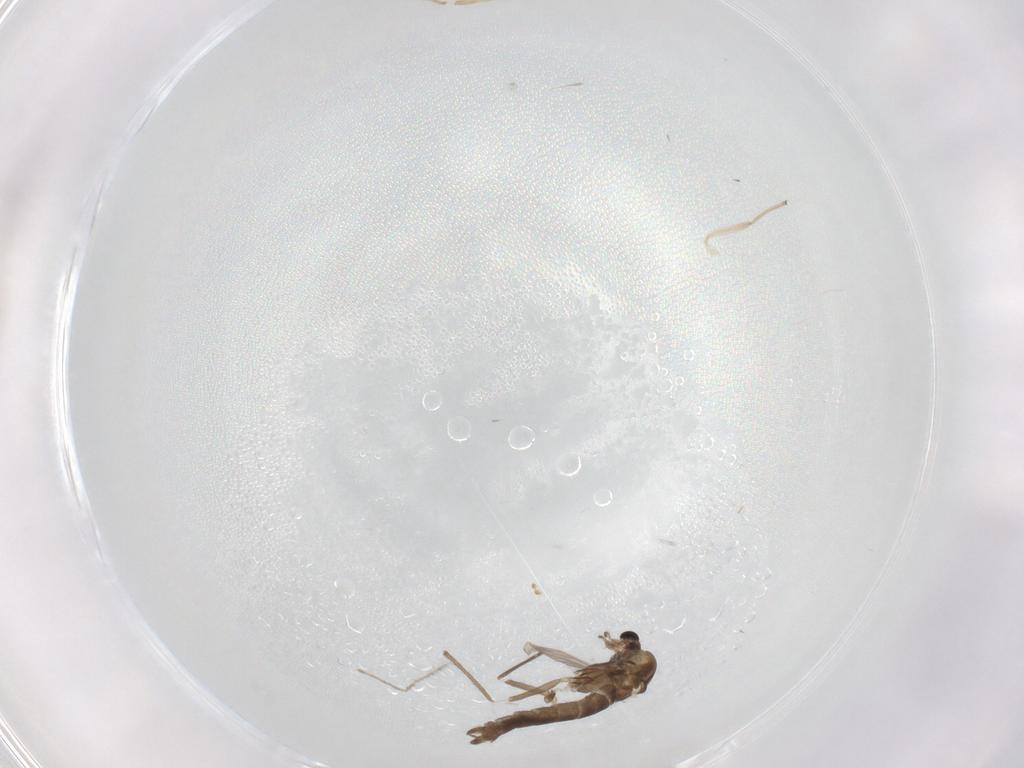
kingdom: Animalia
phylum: Arthropoda
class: Insecta
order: Diptera
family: Chironomidae
